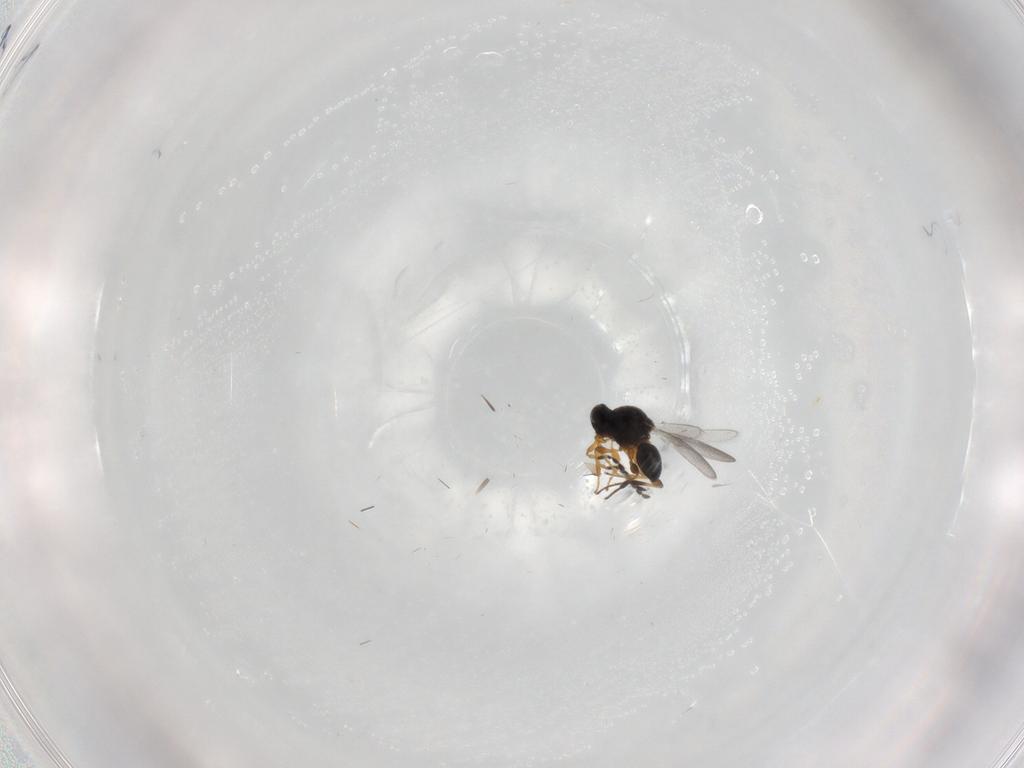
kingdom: Animalia
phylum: Arthropoda
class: Insecta
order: Hymenoptera
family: Platygastridae
